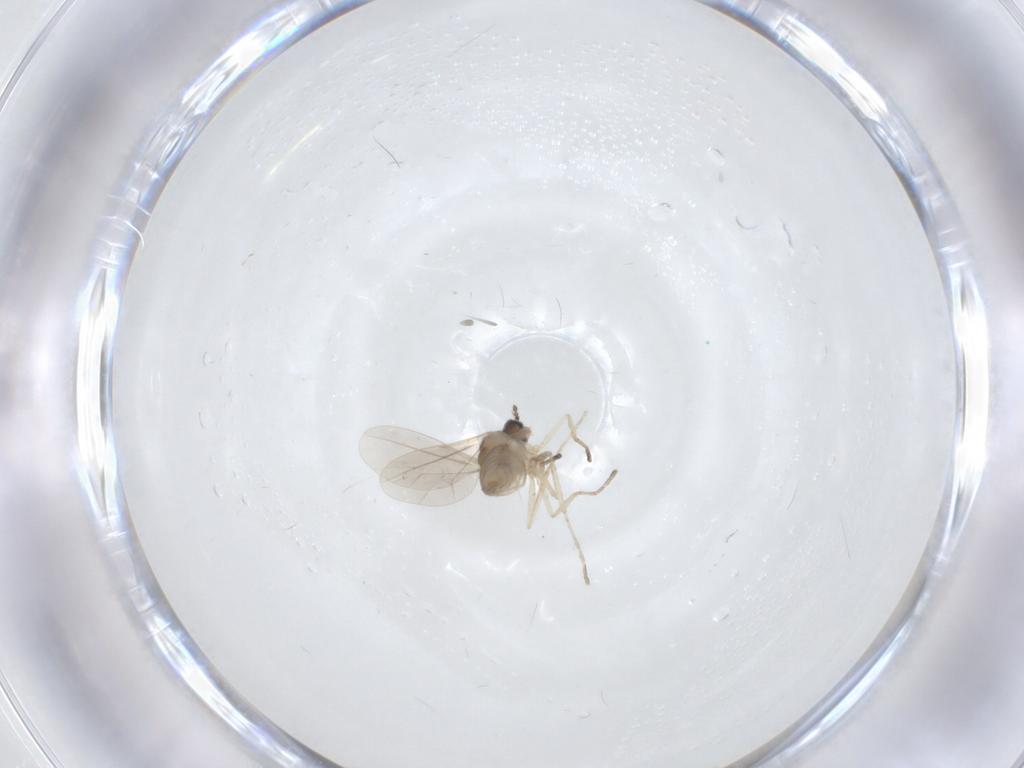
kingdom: Animalia
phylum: Arthropoda
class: Insecta
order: Diptera
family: Cecidomyiidae
